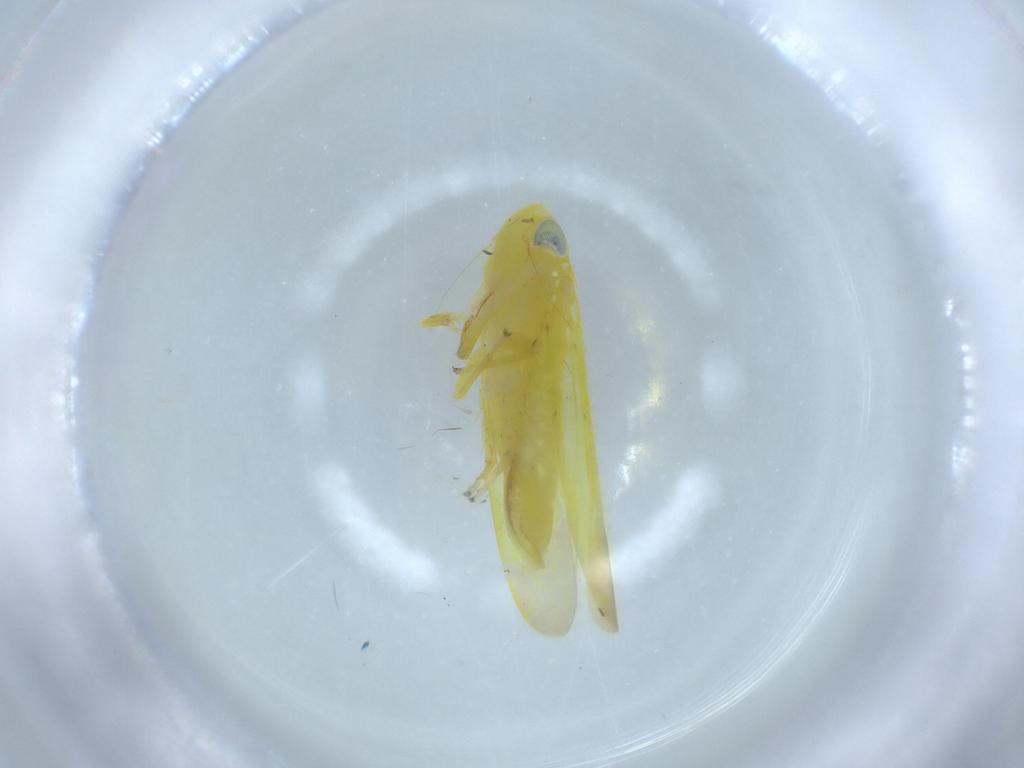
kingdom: Animalia
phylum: Arthropoda
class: Insecta
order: Hemiptera
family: Cicadellidae
